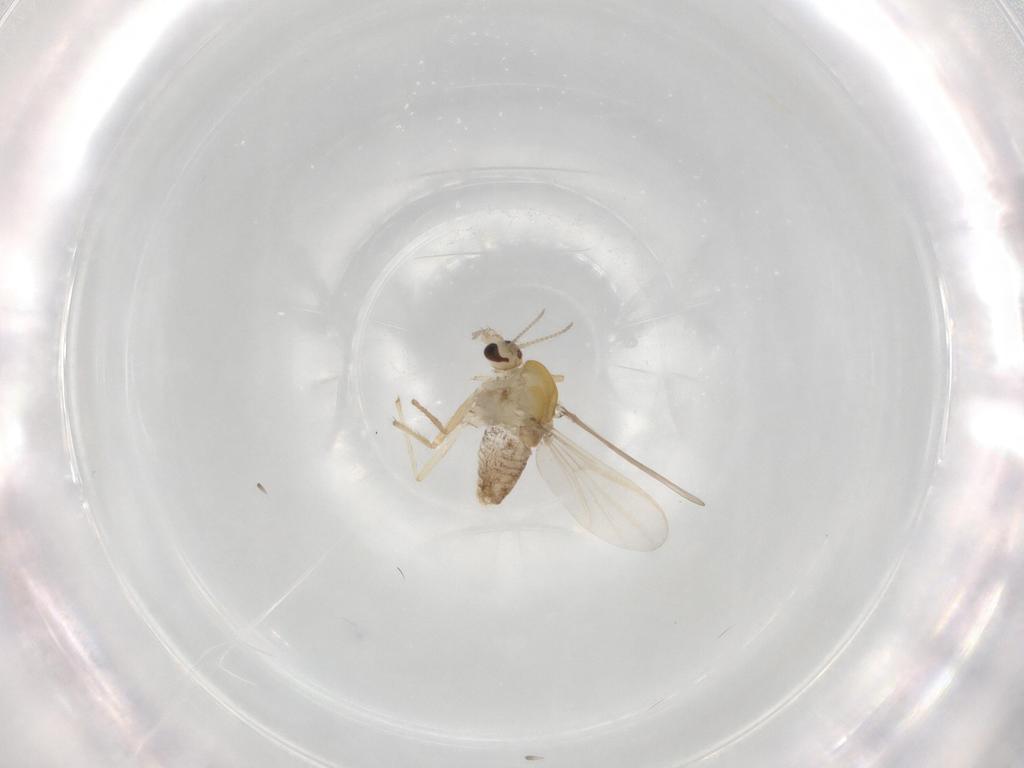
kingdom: Animalia
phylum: Arthropoda
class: Insecta
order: Diptera
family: Chironomidae
